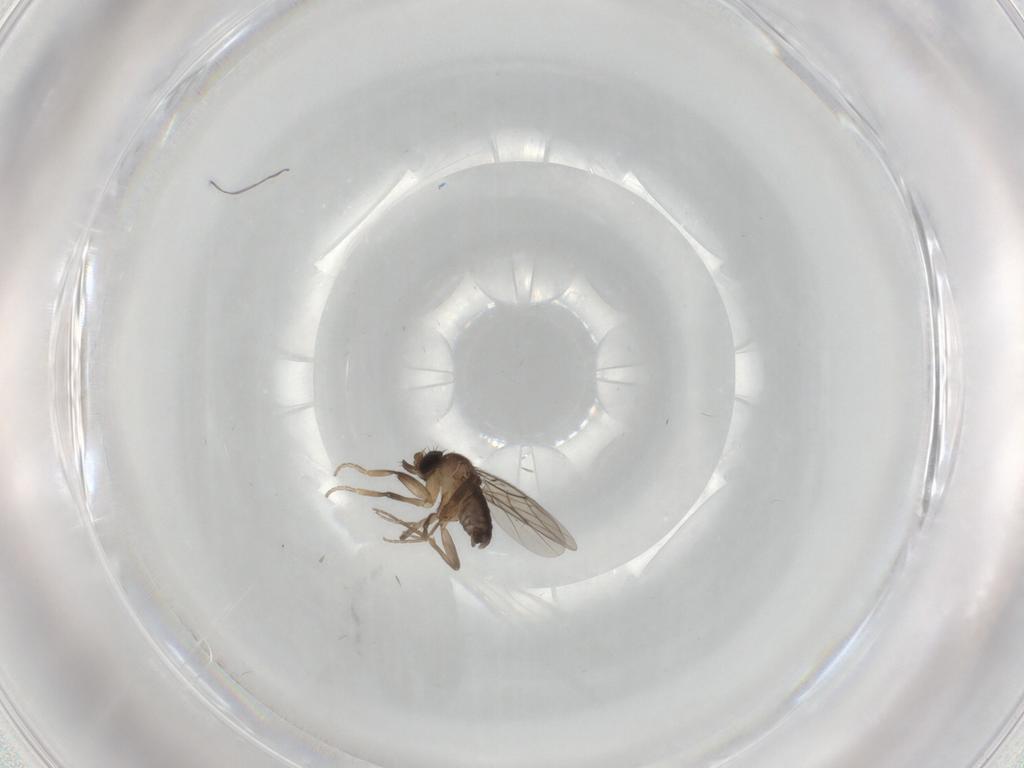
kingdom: Animalia
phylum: Arthropoda
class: Insecta
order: Diptera
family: Phoridae
